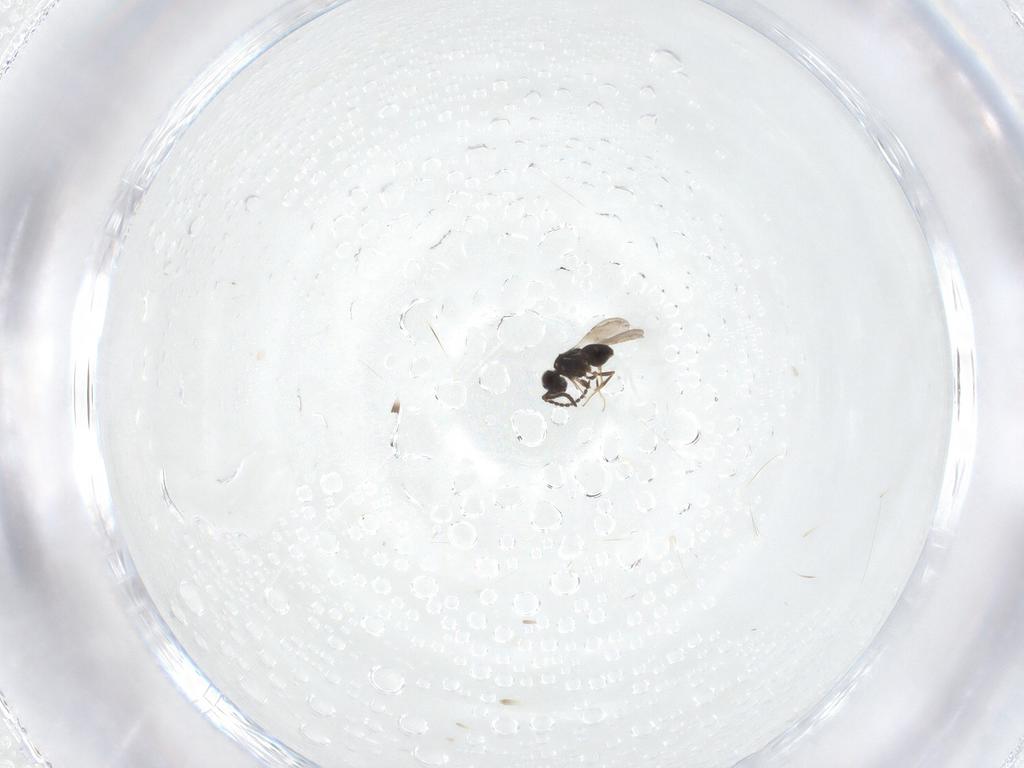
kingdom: Animalia
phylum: Arthropoda
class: Insecta
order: Hymenoptera
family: Ceraphronidae
